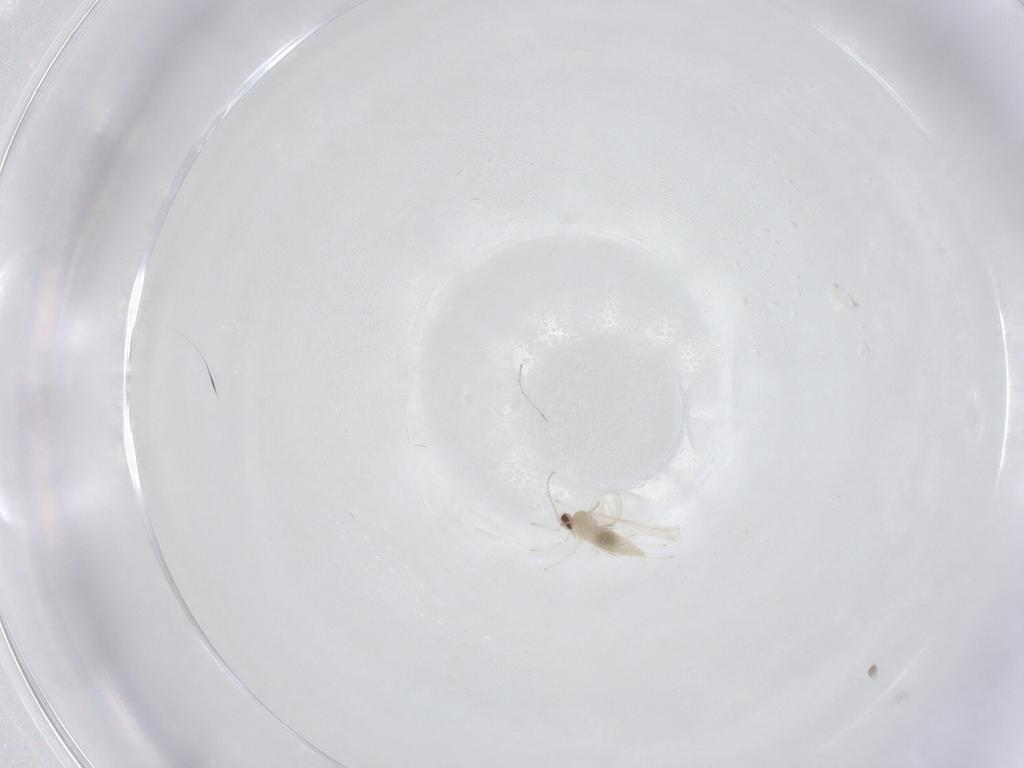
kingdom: Animalia
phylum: Arthropoda
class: Insecta
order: Diptera
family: Cecidomyiidae
